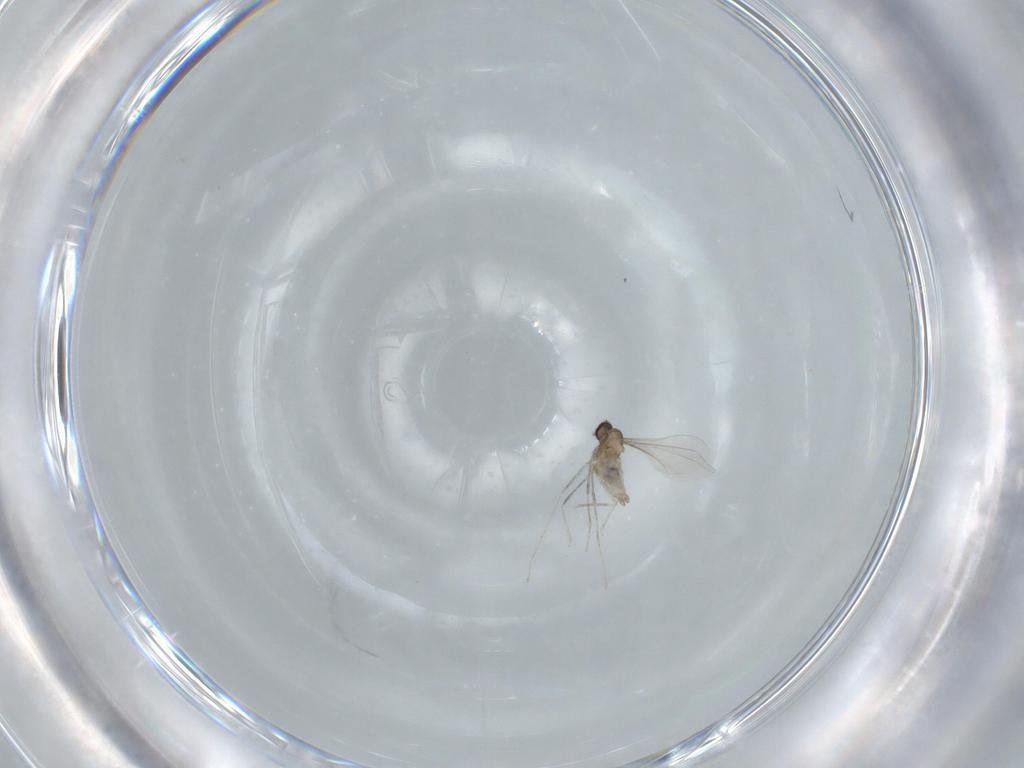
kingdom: Animalia
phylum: Arthropoda
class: Insecta
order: Diptera
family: Cecidomyiidae
